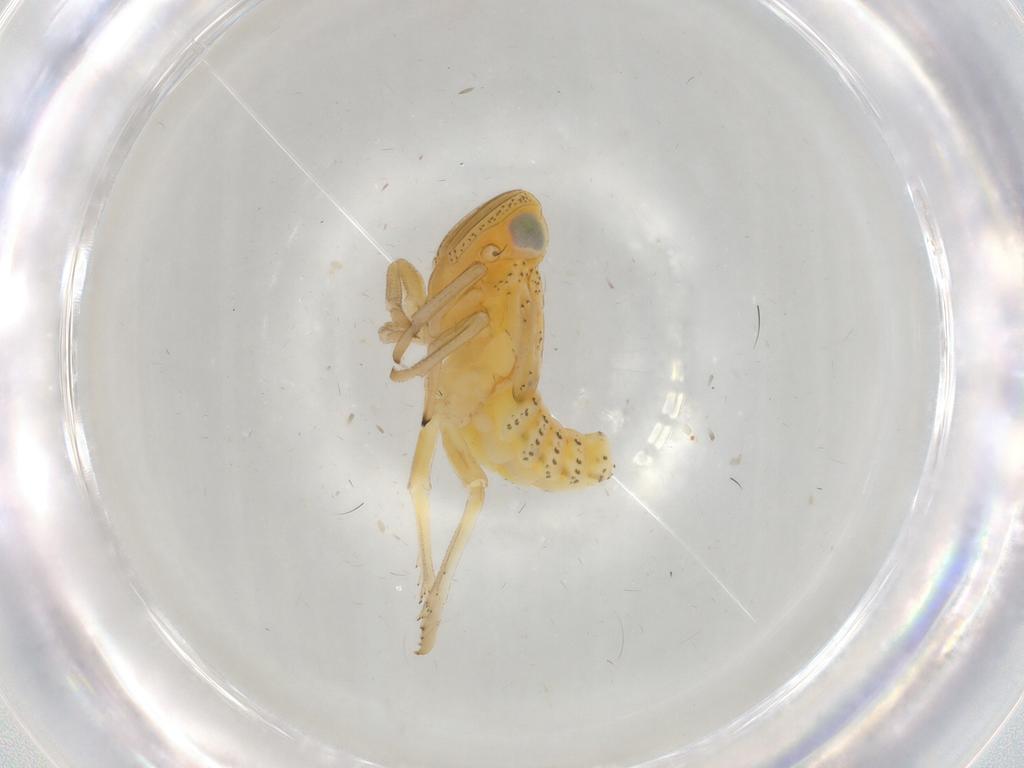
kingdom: Animalia
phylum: Arthropoda
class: Insecta
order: Hemiptera
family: Tropiduchidae
